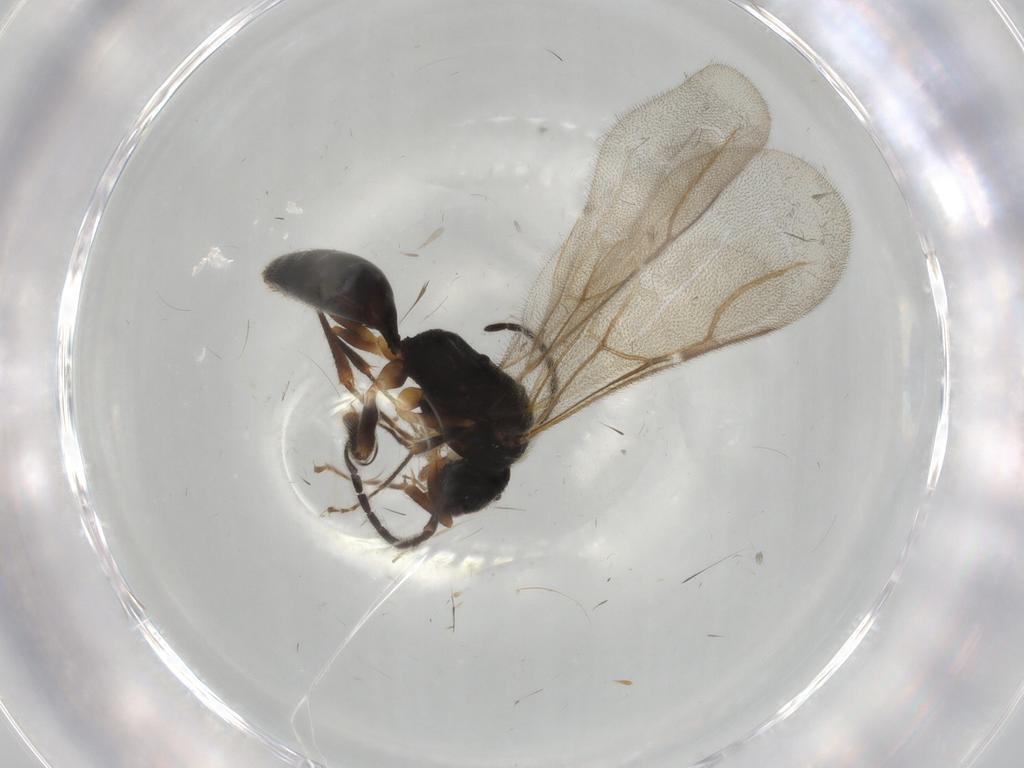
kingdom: Animalia
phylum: Arthropoda
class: Insecta
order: Hymenoptera
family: Bethylidae
